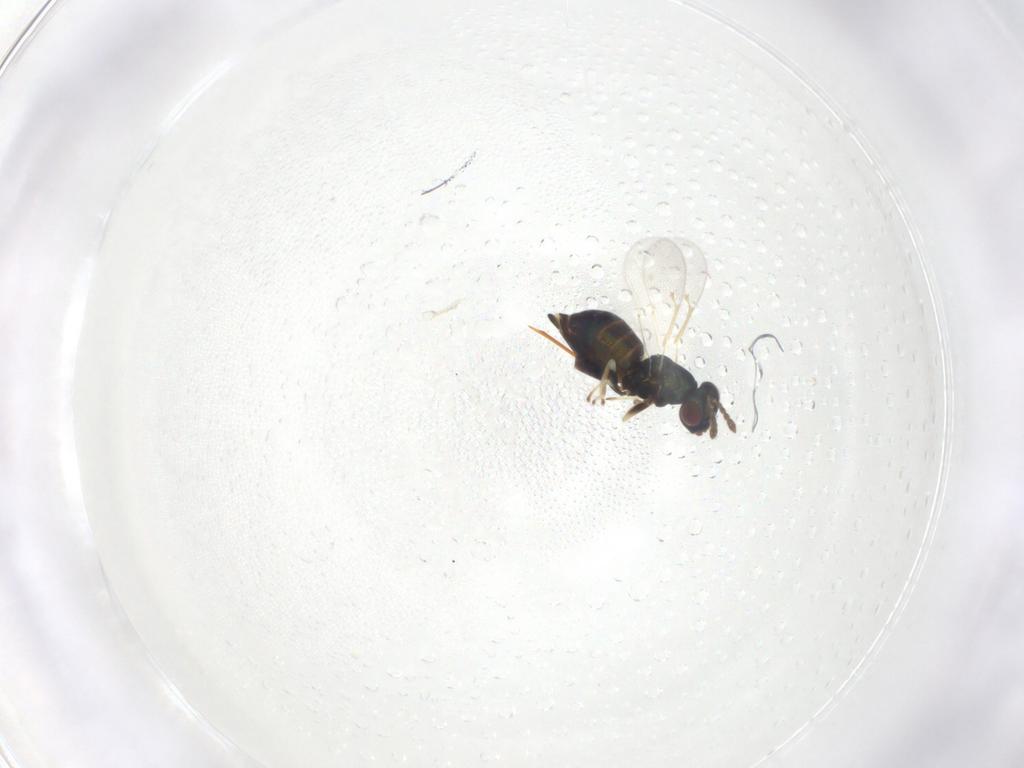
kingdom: Animalia
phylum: Arthropoda
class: Insecta
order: Hymenoptera
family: Eulophidae
